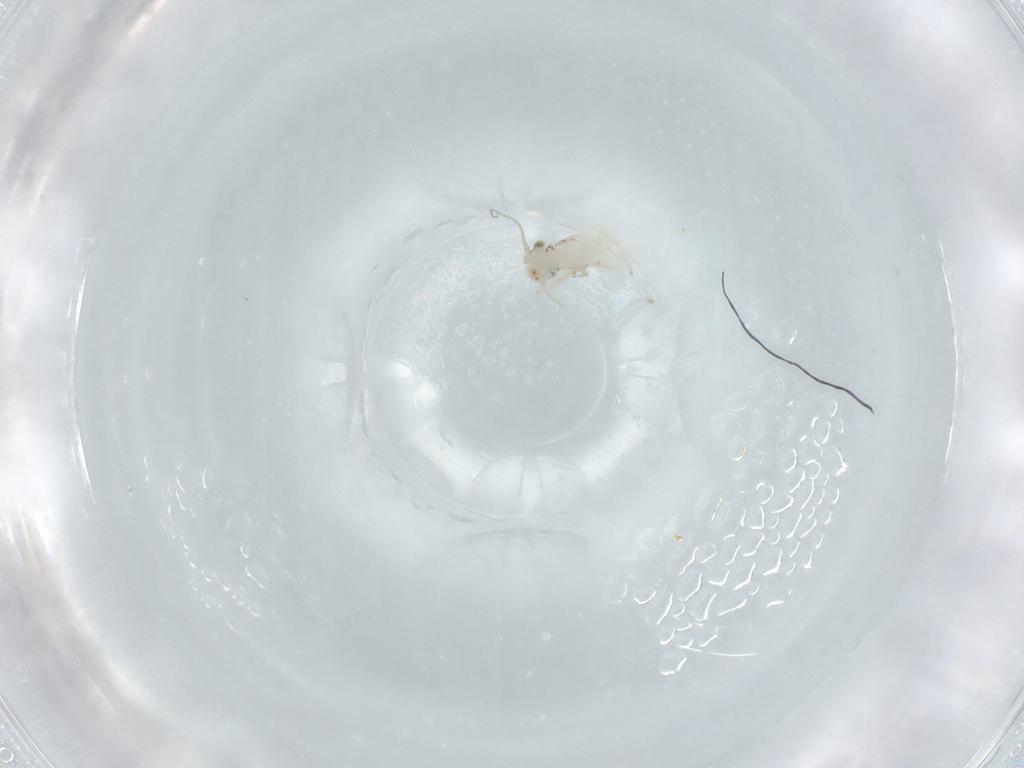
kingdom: Animalia
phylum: Arthropoda
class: Insecta
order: Psocodea
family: Lepidopsocidae
